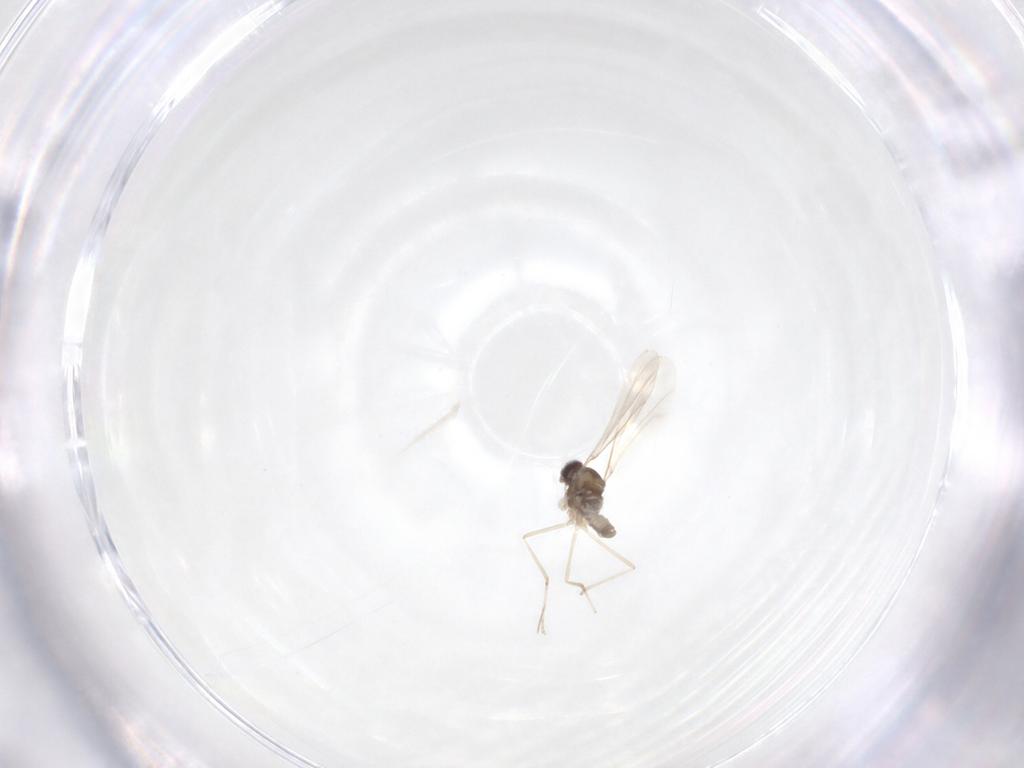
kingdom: Animalia
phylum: Arthropoda
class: Insecta
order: Diptera
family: Cecidomyiidae
